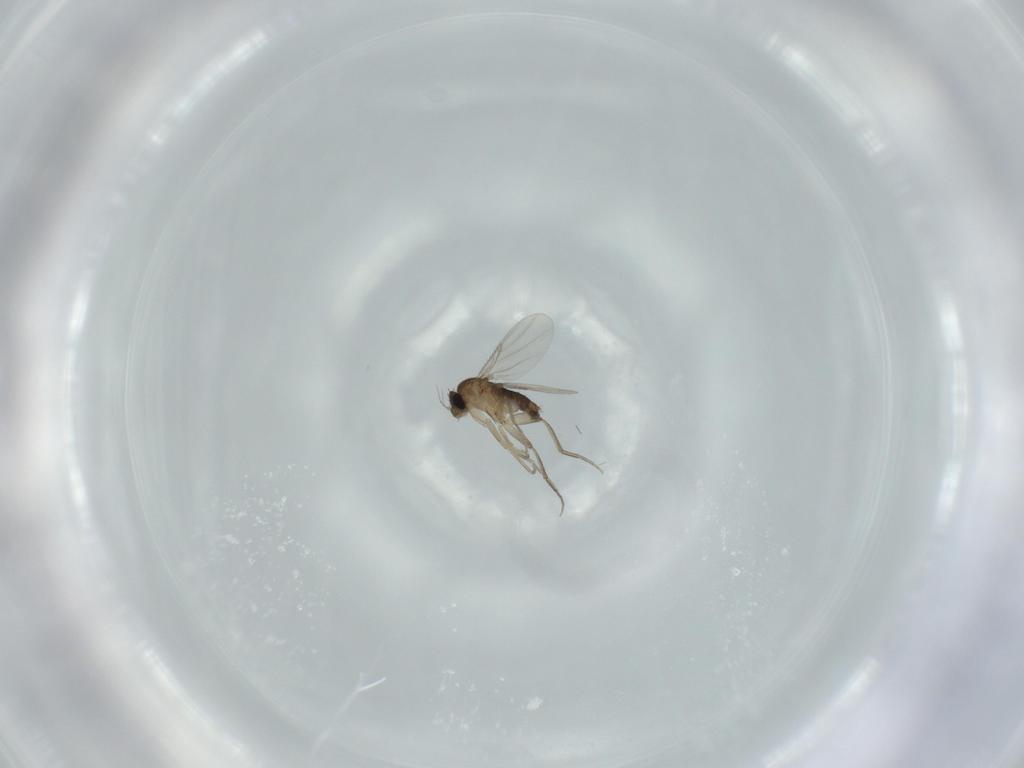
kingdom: Animalia
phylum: Arthropoda
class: Insecta
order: Diptera
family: Phoridae
